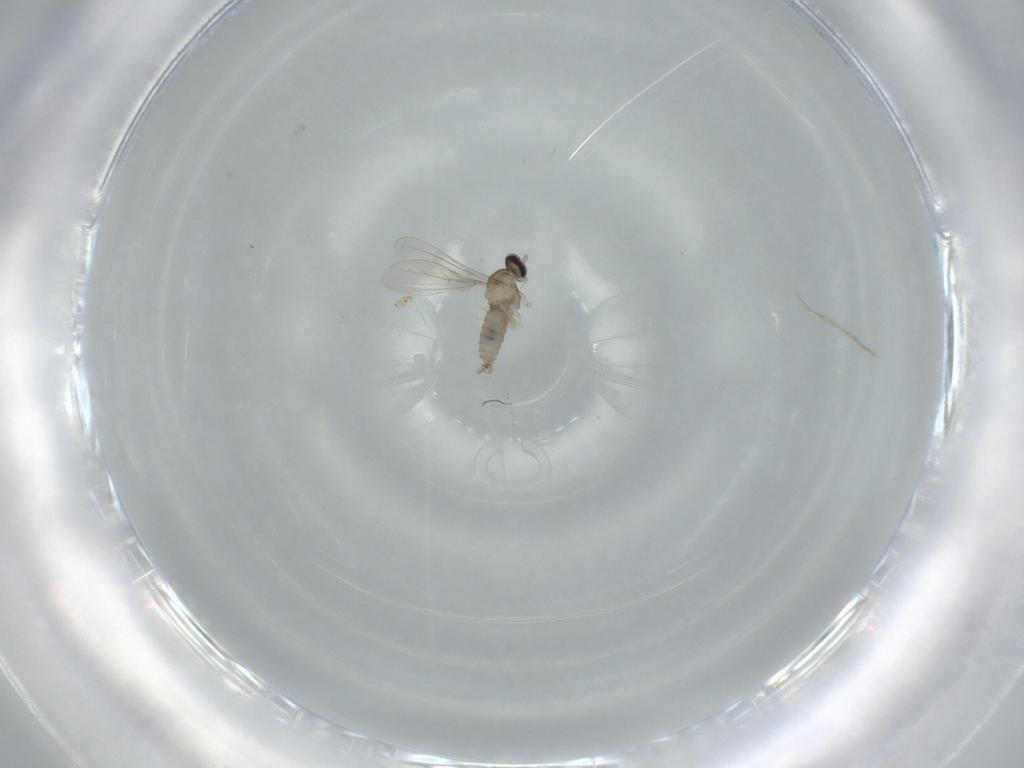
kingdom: Animalia
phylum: Arthropoda
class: Insecta
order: Diptera
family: Cecidomyiidae
